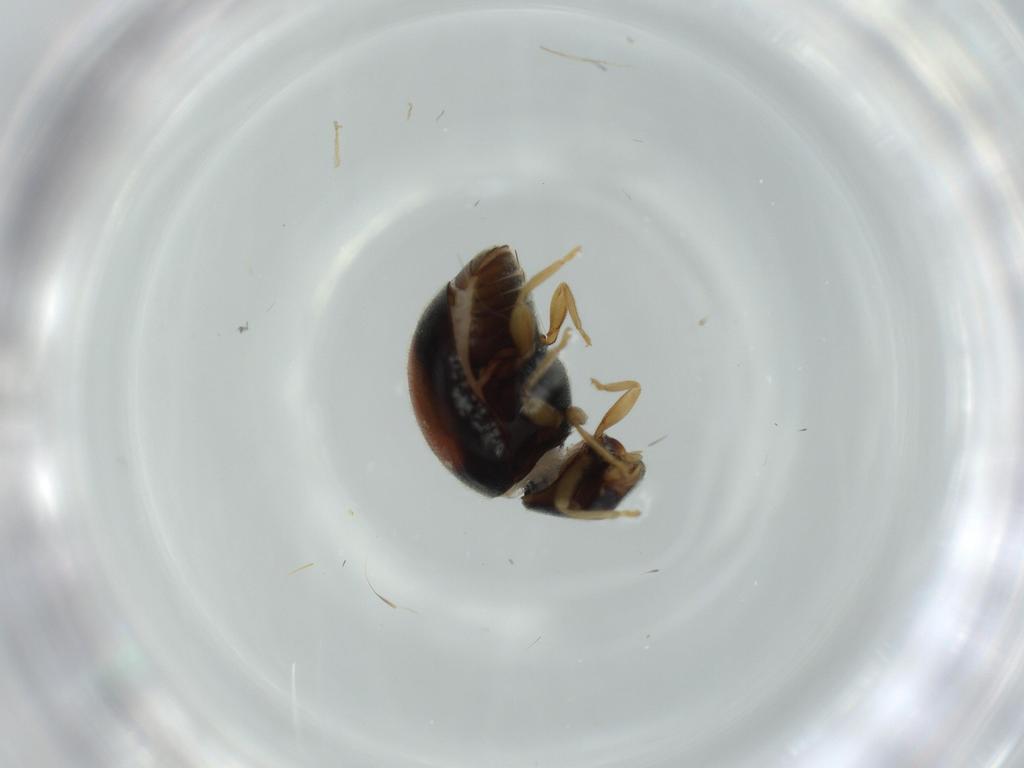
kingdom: Animalia
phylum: Arthropoda
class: Insecta
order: Coleoptera
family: Coccinellidae
